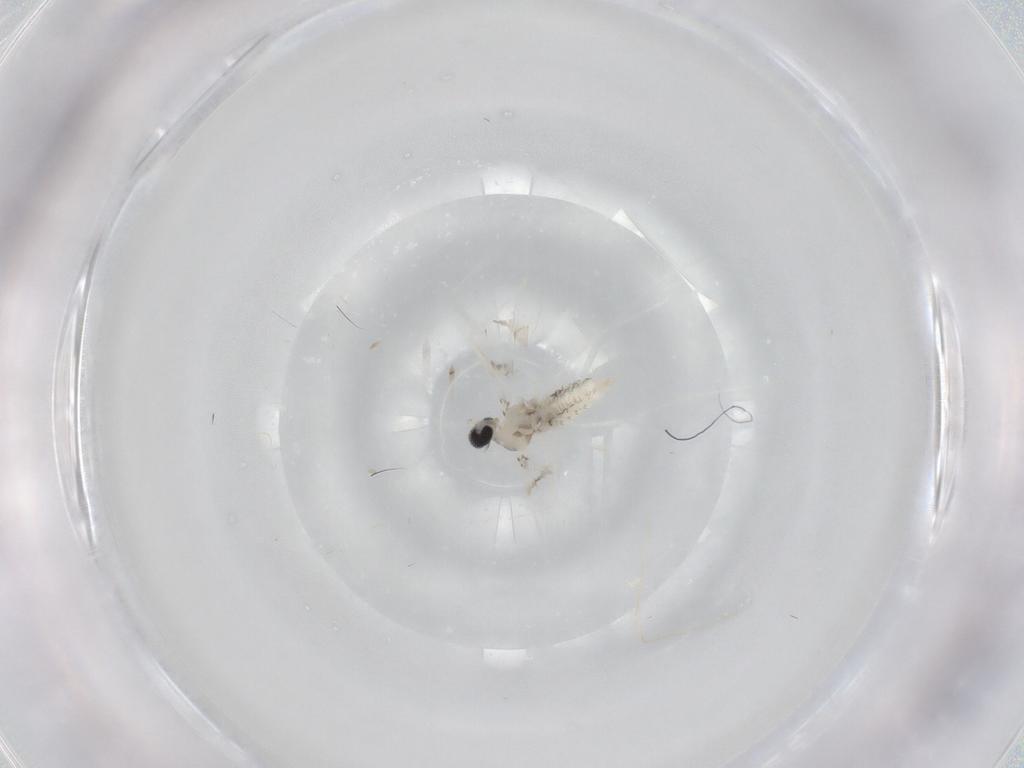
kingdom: Animalia
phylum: Arthropoda
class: Insecta
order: Diptera
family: Cecidomyiidae
